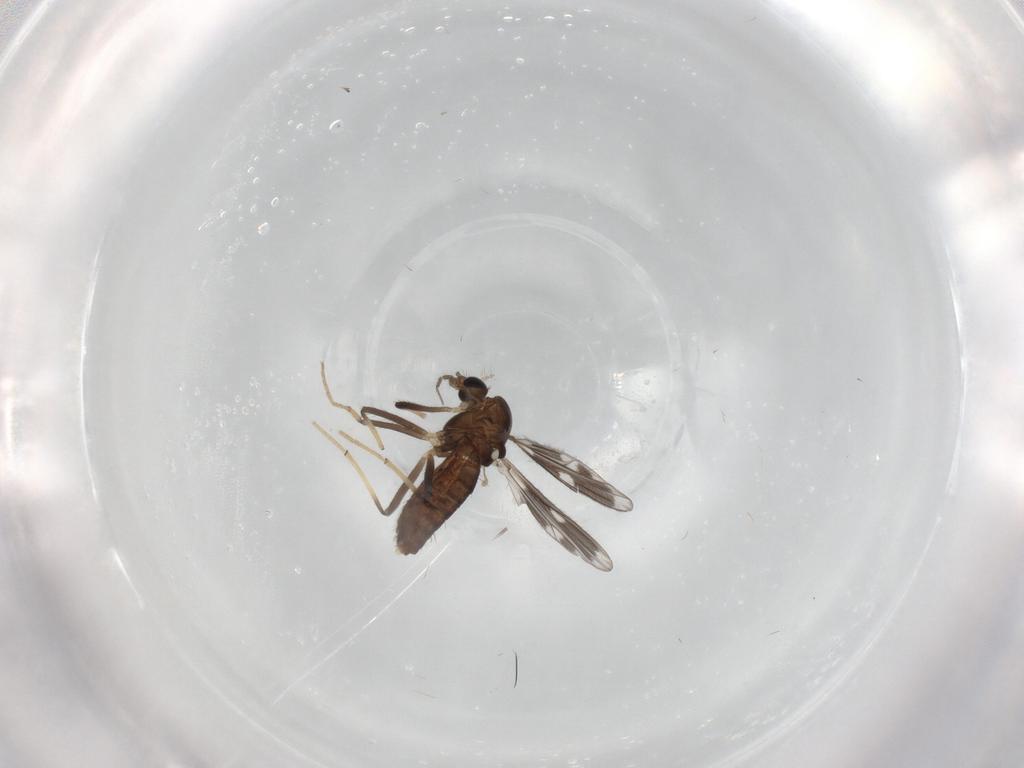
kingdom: Animalia
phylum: Arthropoda
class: Insecta
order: Diptera
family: Chironomidae
